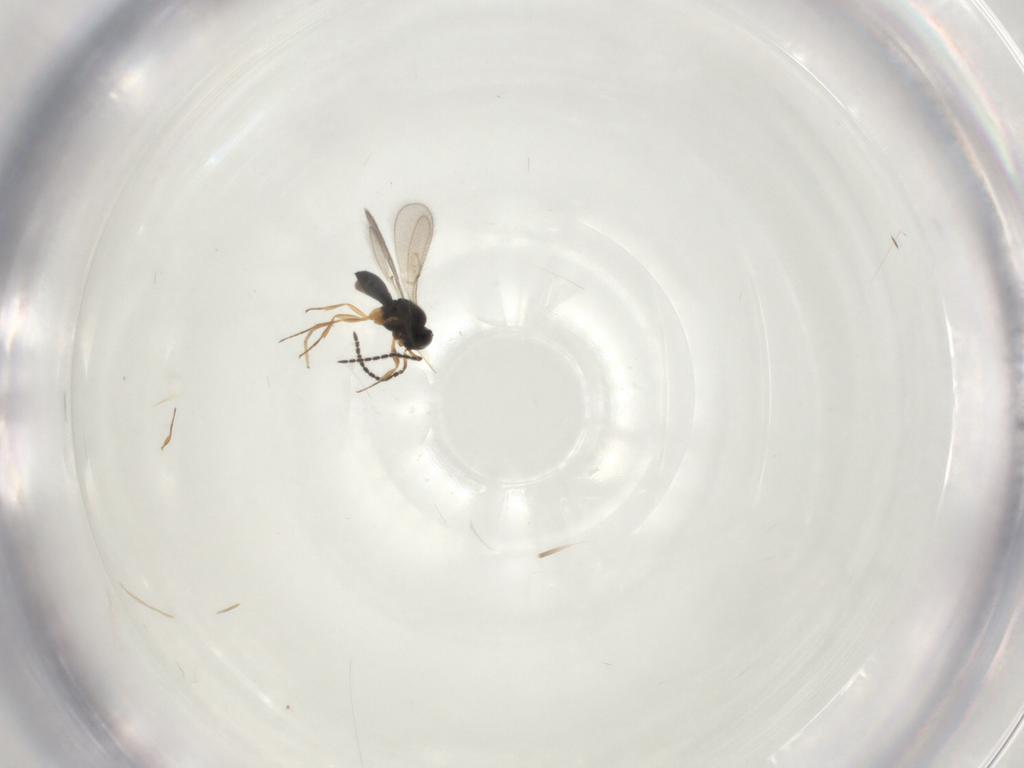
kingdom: Animalia
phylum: Arthropoda
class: Insecta
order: Hymenoptera
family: Scelionidae
